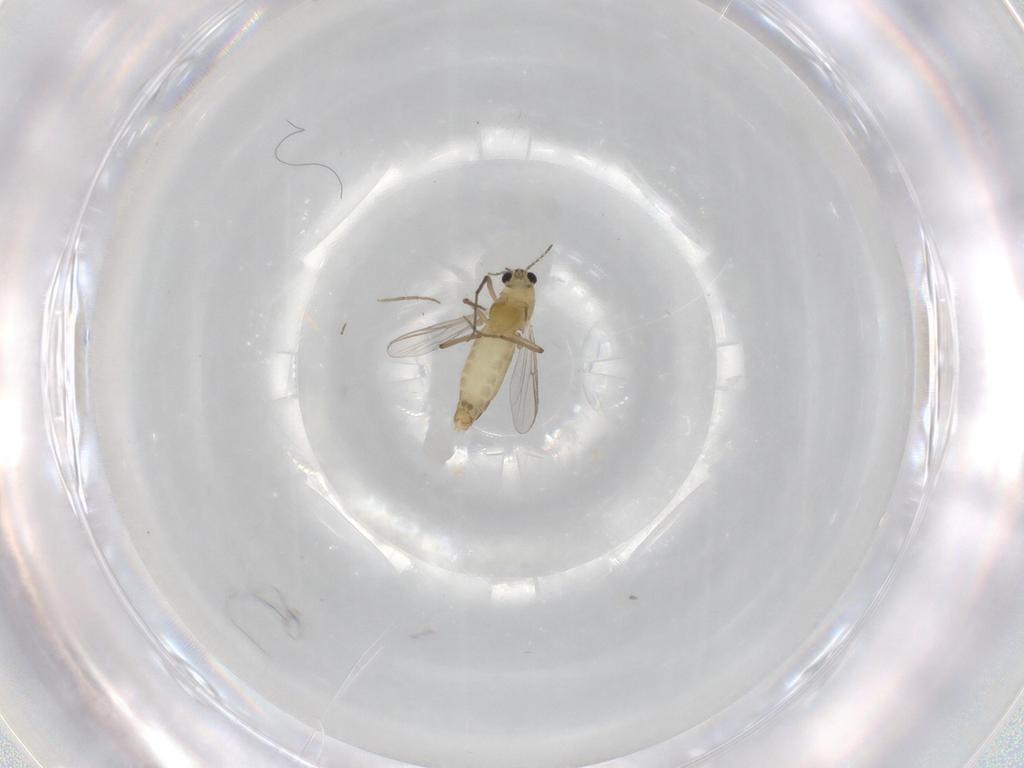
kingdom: Animalia
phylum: Arthropoda
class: Insecta
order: Diptera
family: Chironomidae
